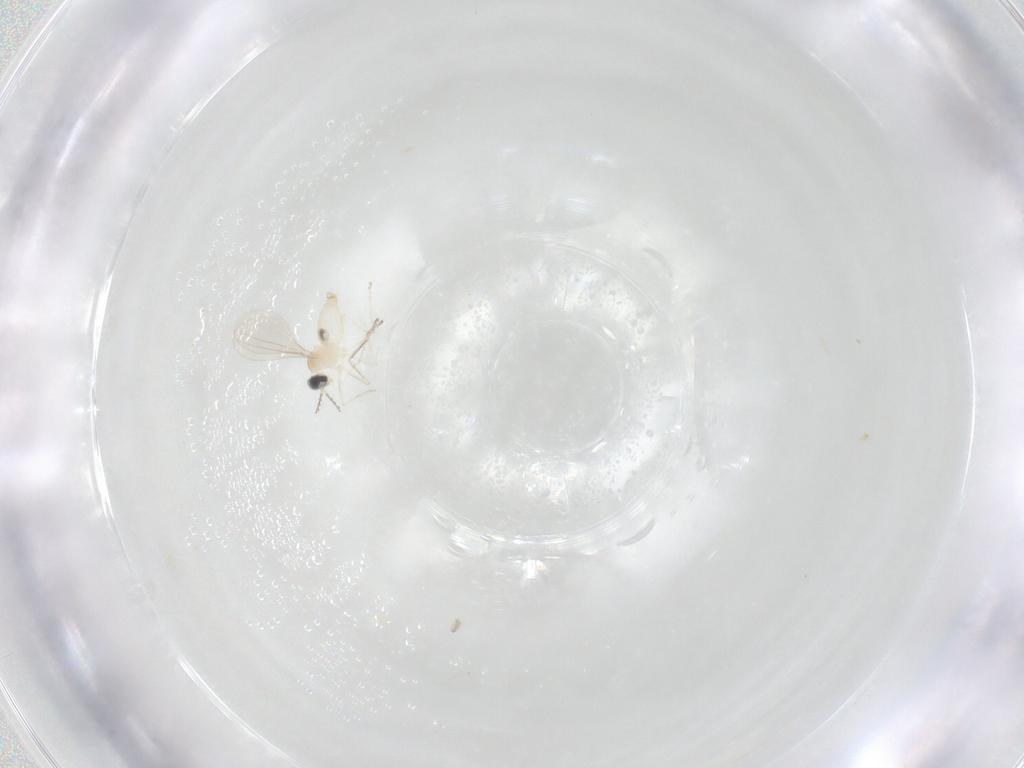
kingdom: Animalia
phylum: Arthropoda
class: Insecta
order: Diptera
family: Cecidomyiidae
